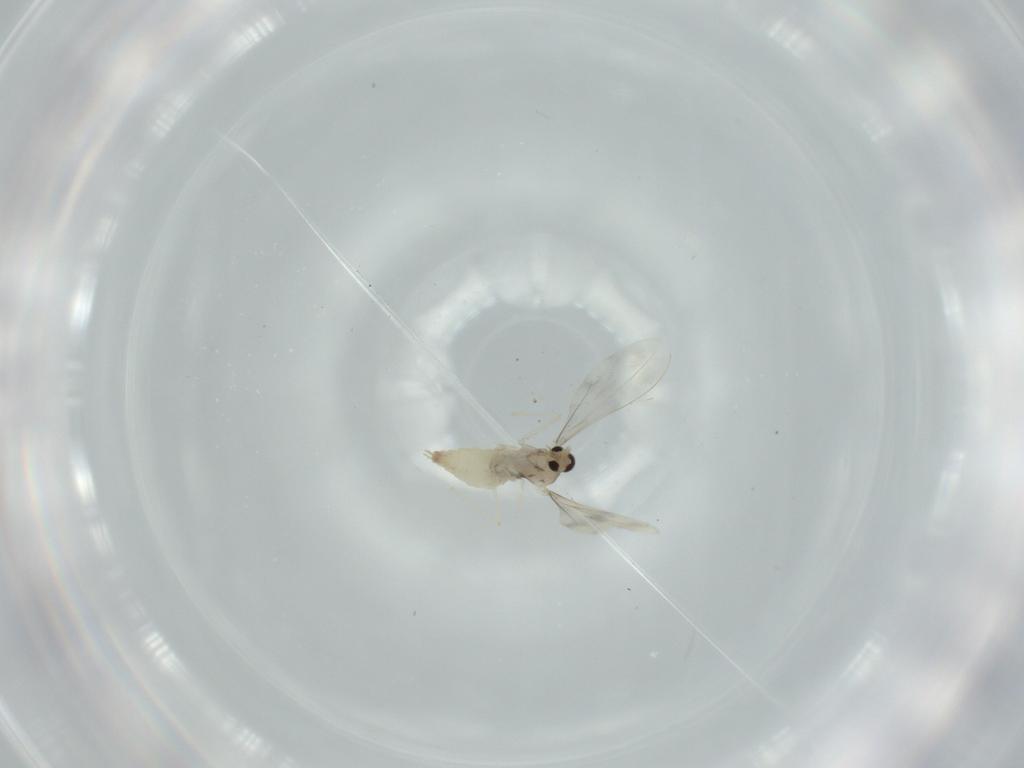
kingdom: Animalia
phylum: Arthropoda
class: Insecta
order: Diptera
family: Cecidomyiidae
